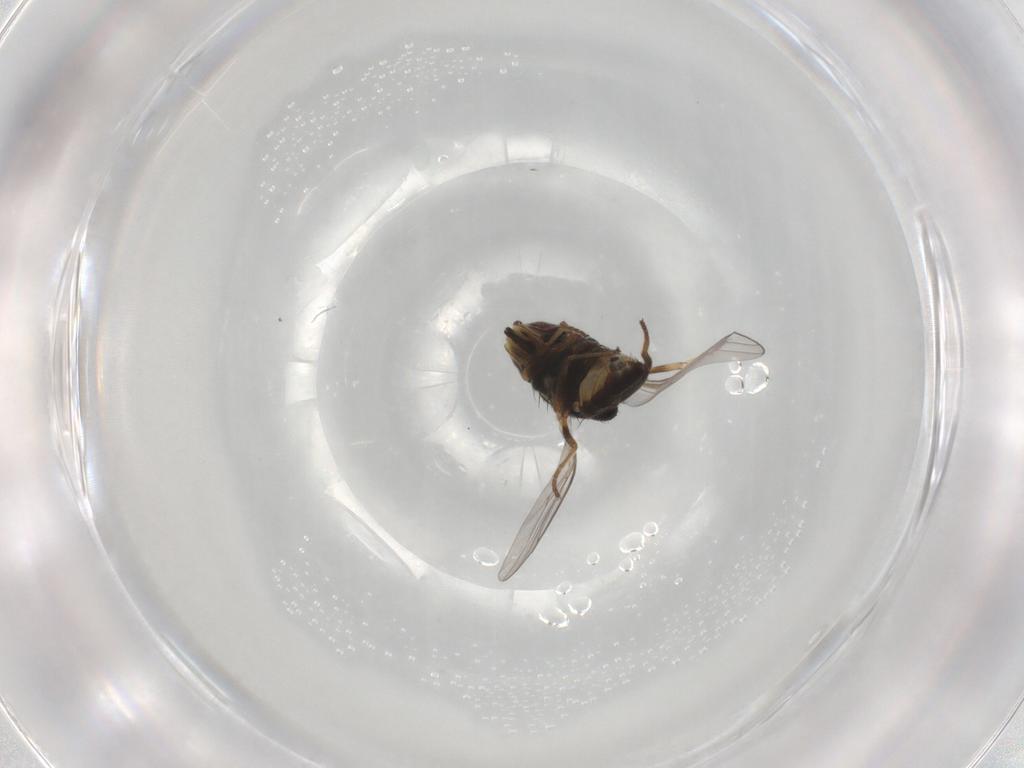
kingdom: Animalia
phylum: Arthropoda
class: Insecta
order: Diptera
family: Chloropidae
